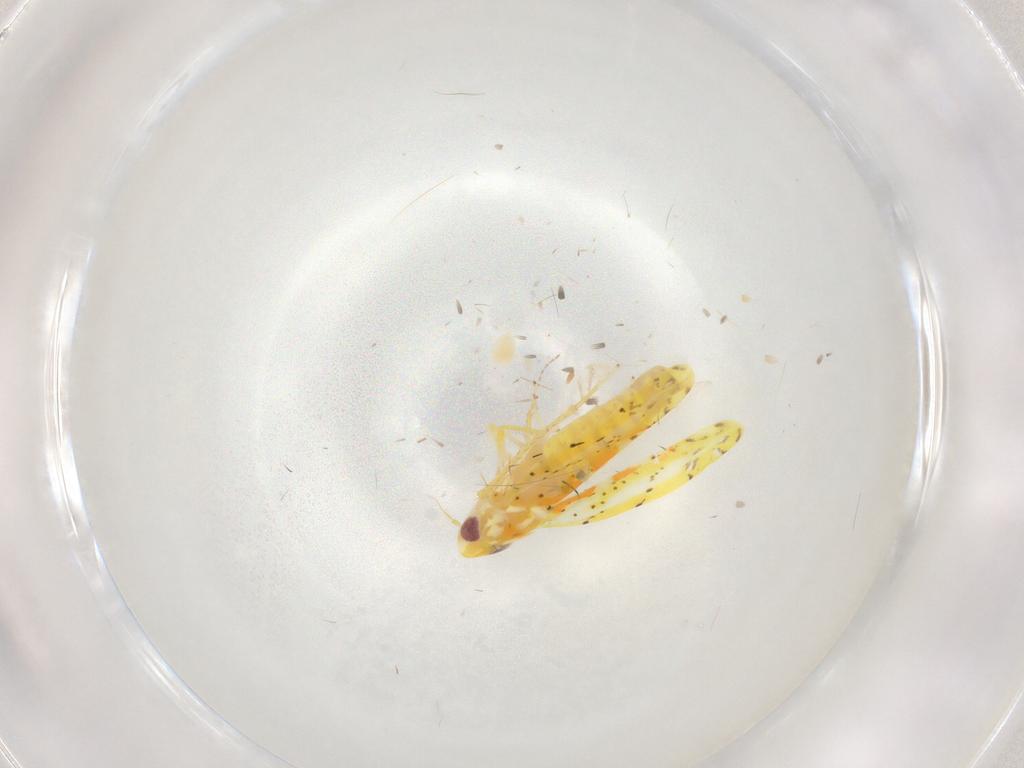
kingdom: Animalia
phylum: Arthropoda
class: Insecta
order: Hemiptera
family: Cicadellidae
